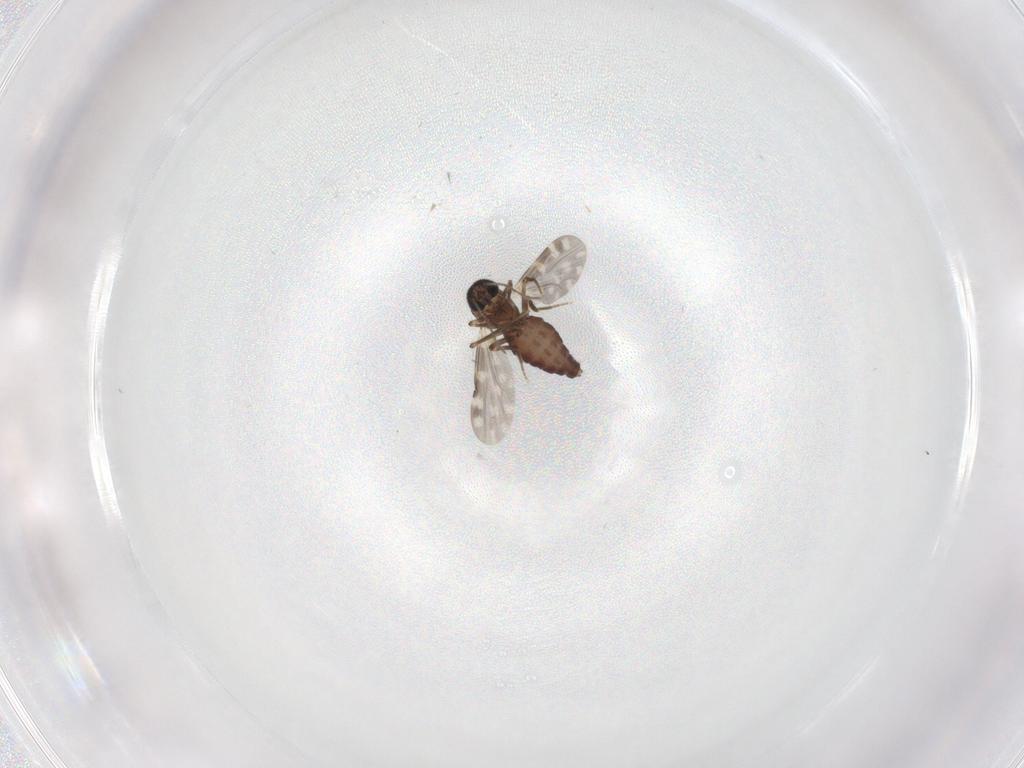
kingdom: Animalia
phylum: Arthropoda
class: Insecta
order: Diptera
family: Ceratopogonidae
